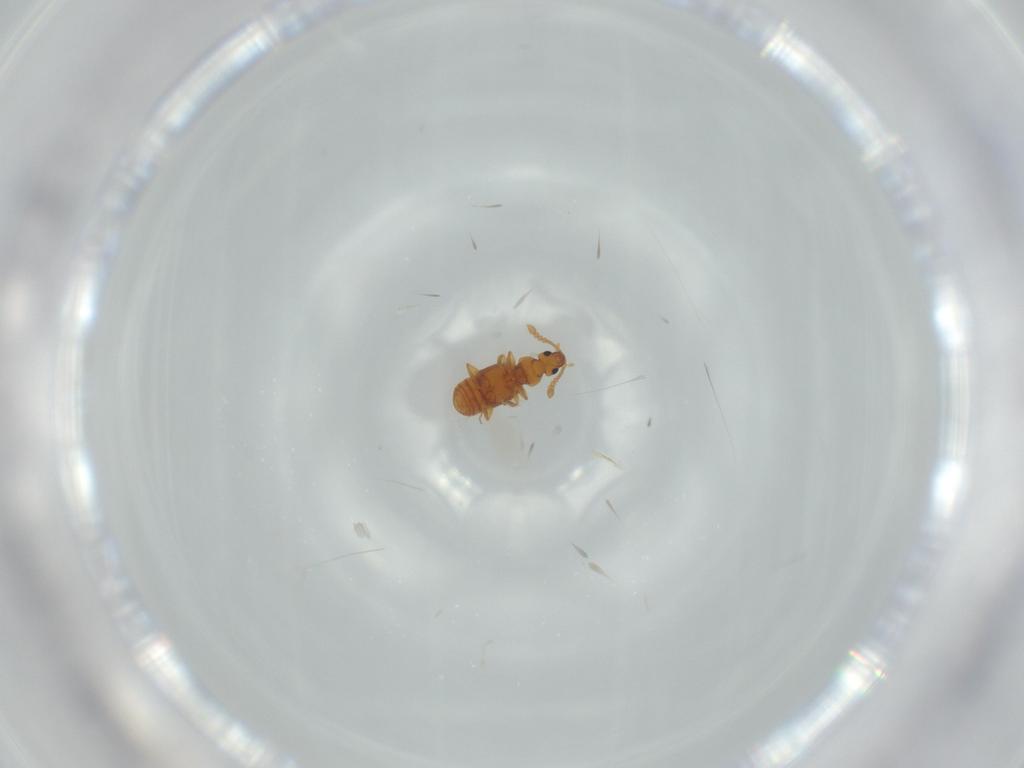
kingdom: Animalia
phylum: Arthropoda
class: Insecta
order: Coleoptera
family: Staphylinidae
